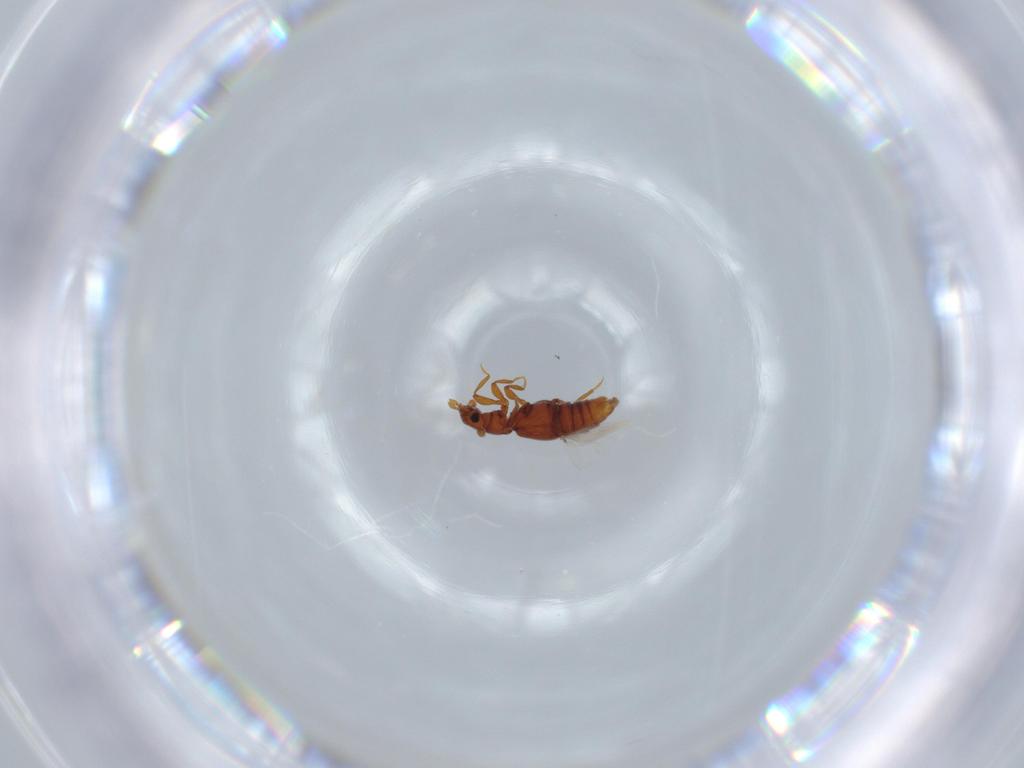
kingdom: Animalia
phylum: Arthropoda
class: Insecta
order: Coleoptera
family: Staphylinidae
